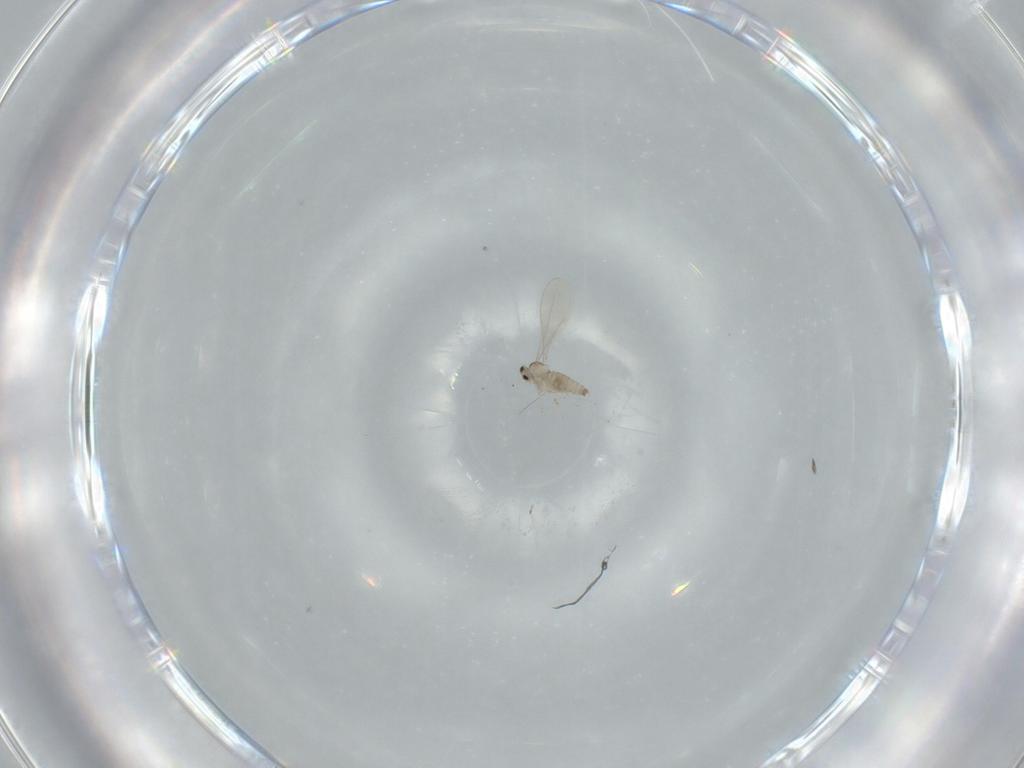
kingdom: Animalia
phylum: Arthropoda
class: Insecta
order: Diptera
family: Cecidomyiidae
